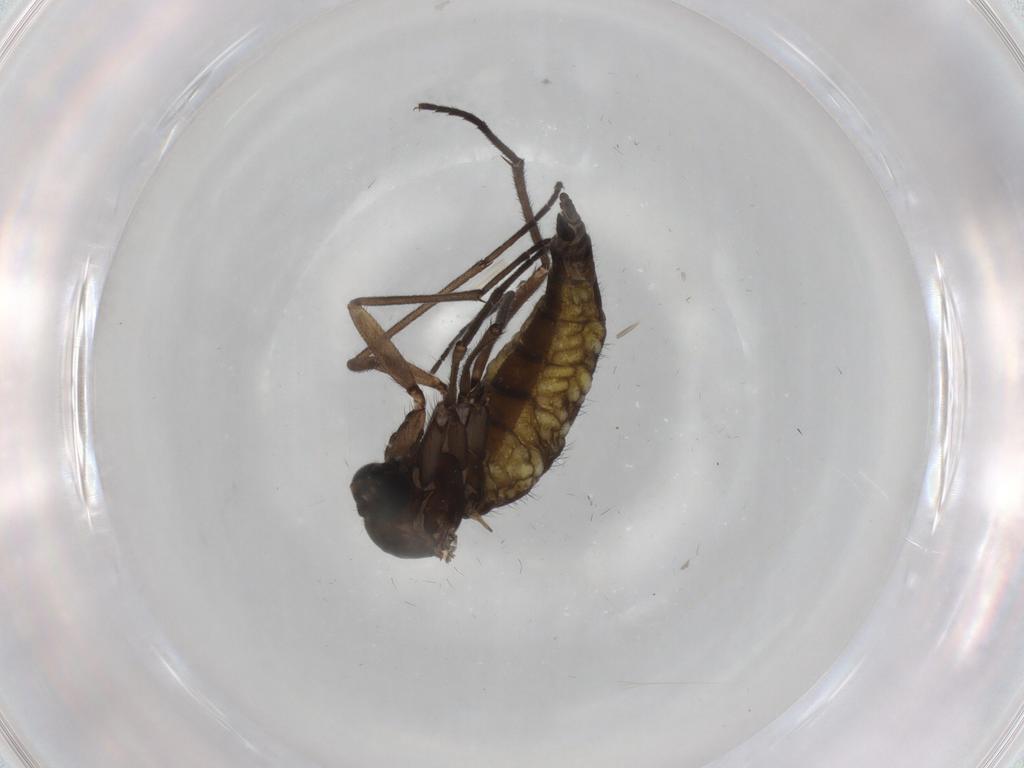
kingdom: Animalia
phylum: Arthropoda
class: Insecta
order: Diptera
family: Sciaridae
